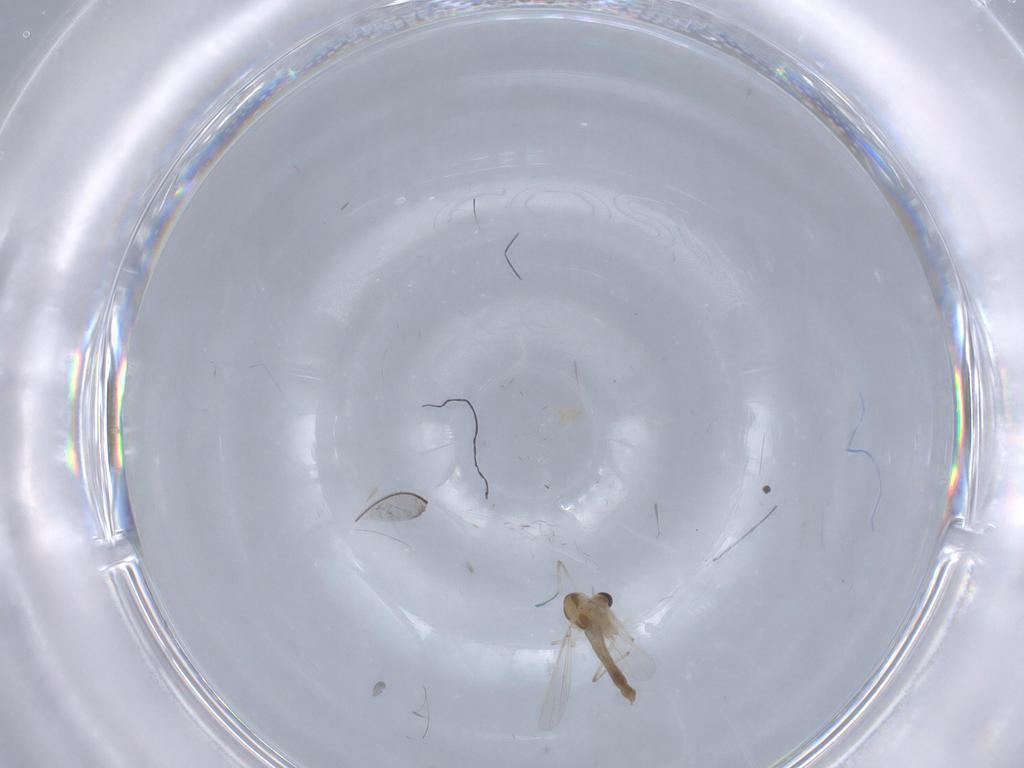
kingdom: Animalia
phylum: Arthropoda
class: Insecta
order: Diptera
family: Chironomidae
